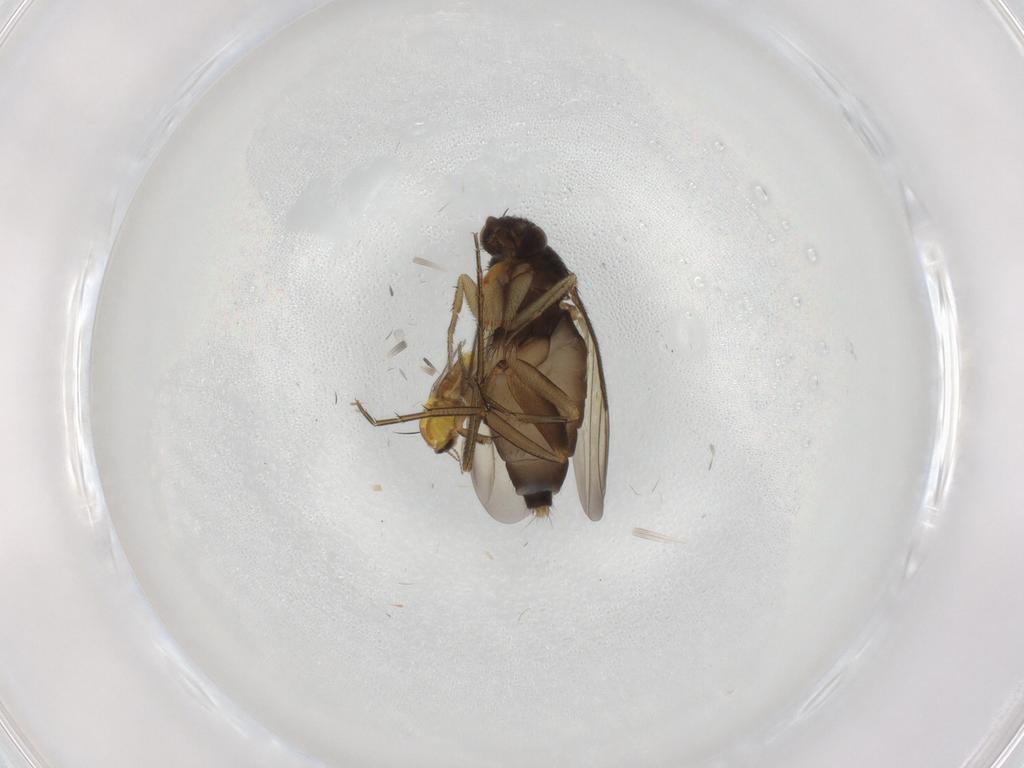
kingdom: Animalia
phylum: Arthropoda
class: Insecta
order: Diptera
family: Ceratopogonidae
